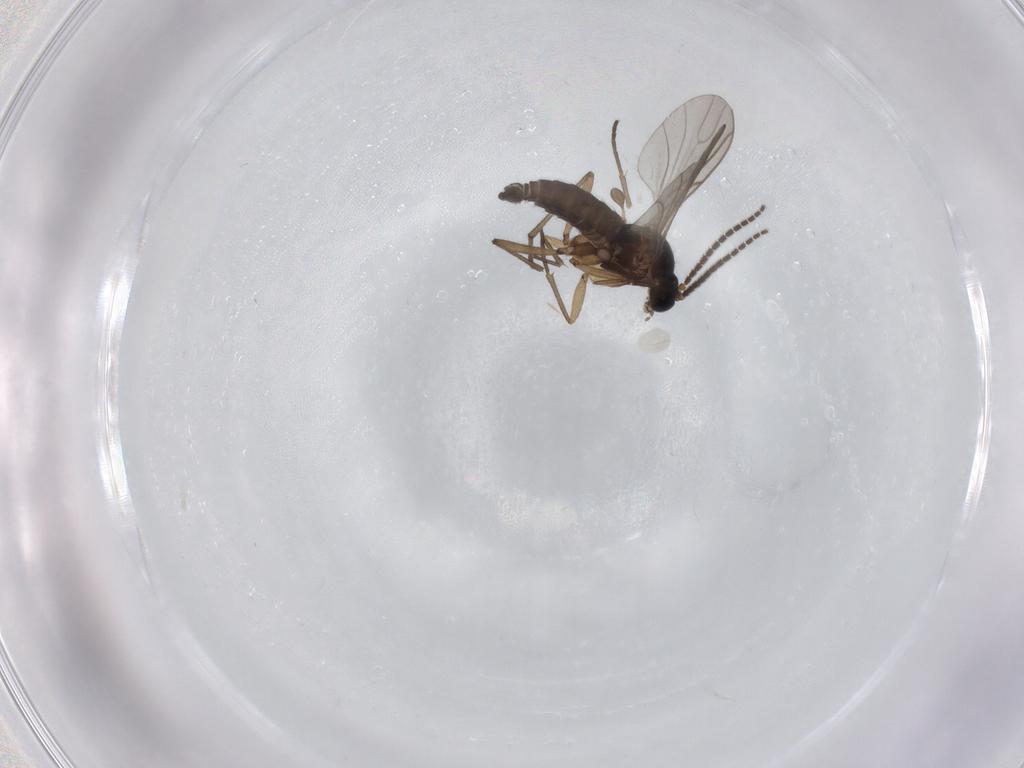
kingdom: Animalia
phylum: Arthropoda
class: Insecta
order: Diptera
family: Sciaridae
